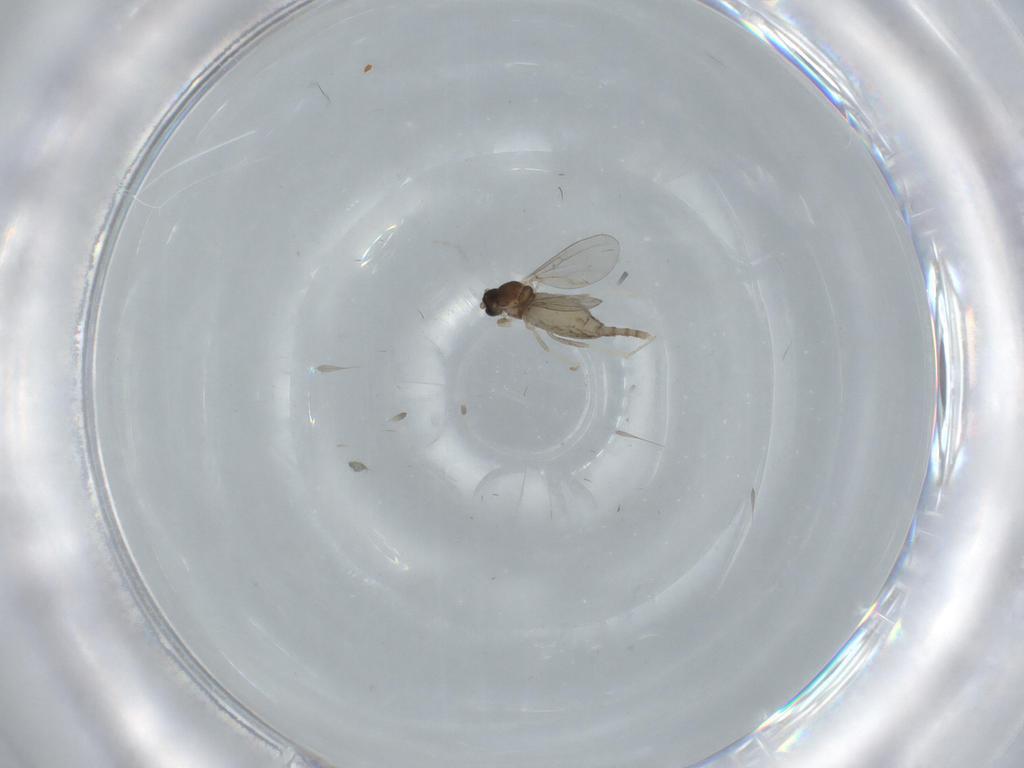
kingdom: Animalia
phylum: Arthropoda
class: Insecta
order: Diptera
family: Cecidomyiidae
